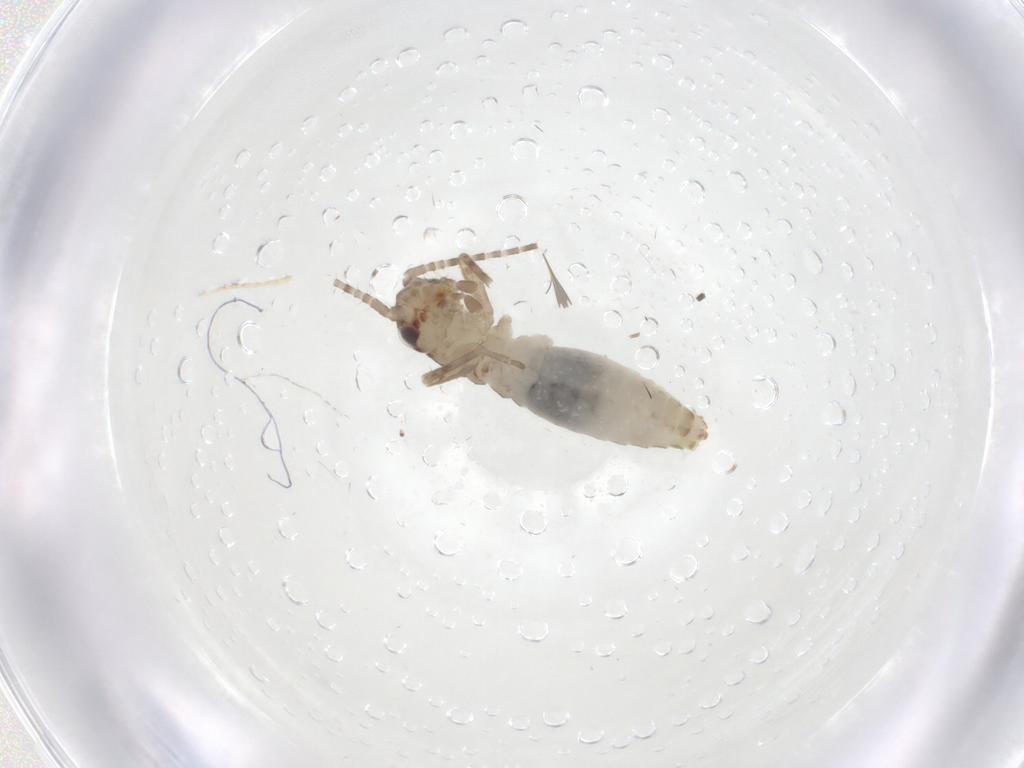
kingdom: Animalia
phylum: Arthropoda
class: Insecta
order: Orthoptera
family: Mogoplistidae
